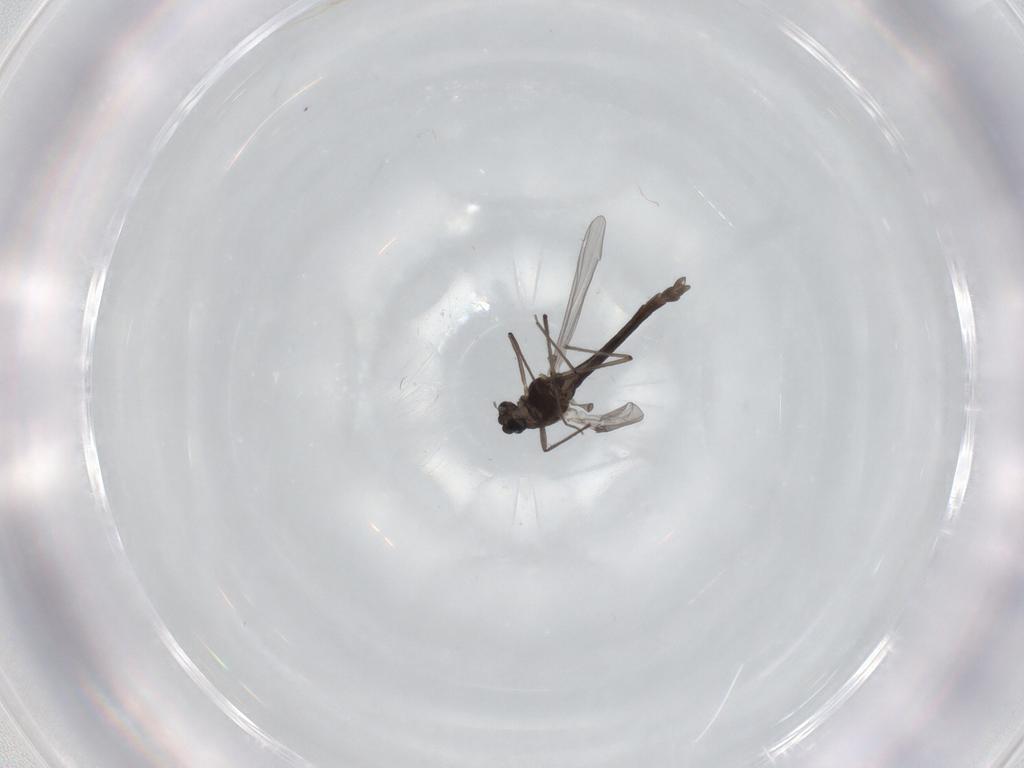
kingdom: Animalia
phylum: Arthropoda
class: Insecta
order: Diptera
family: Chironomidae
